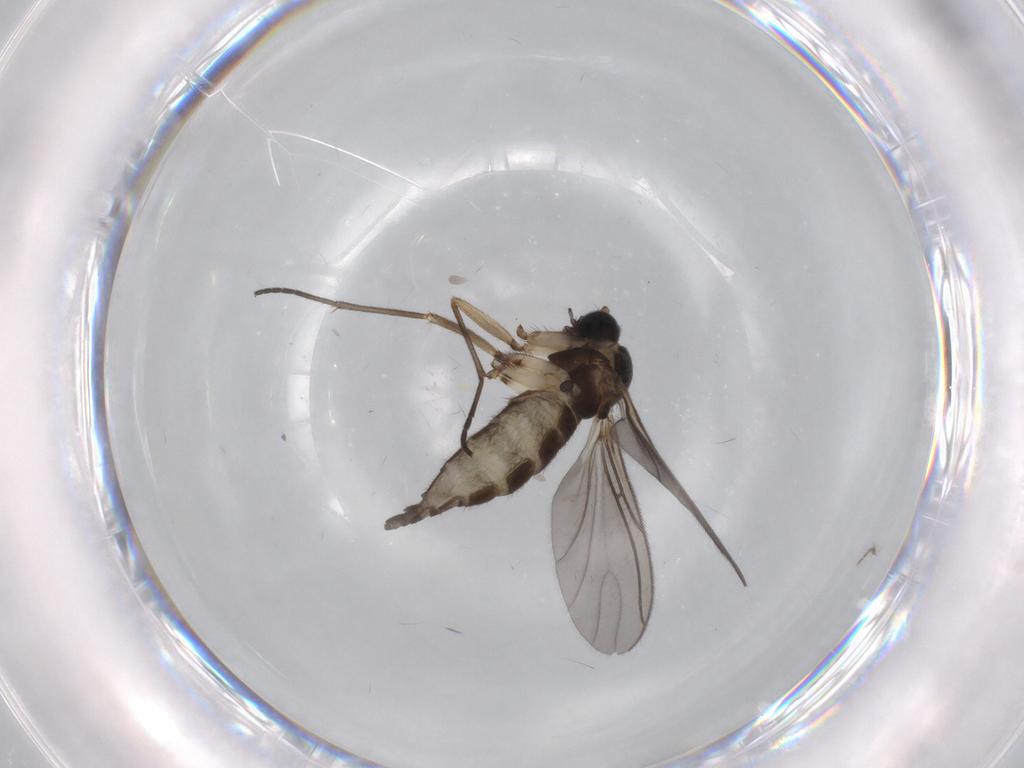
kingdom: Animalia
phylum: Arthropoda
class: Insecta
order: Diptera
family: Sciaridae
